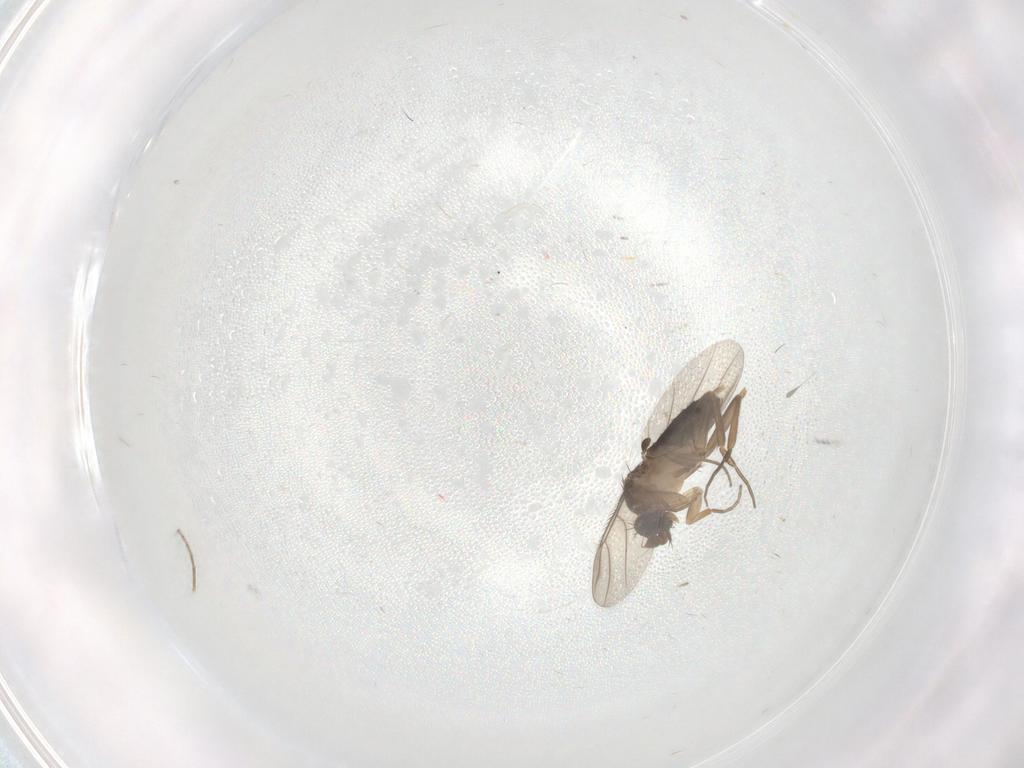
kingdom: Animalia
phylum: Arthropoda
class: Insecta
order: Diptera
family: Phoridae
